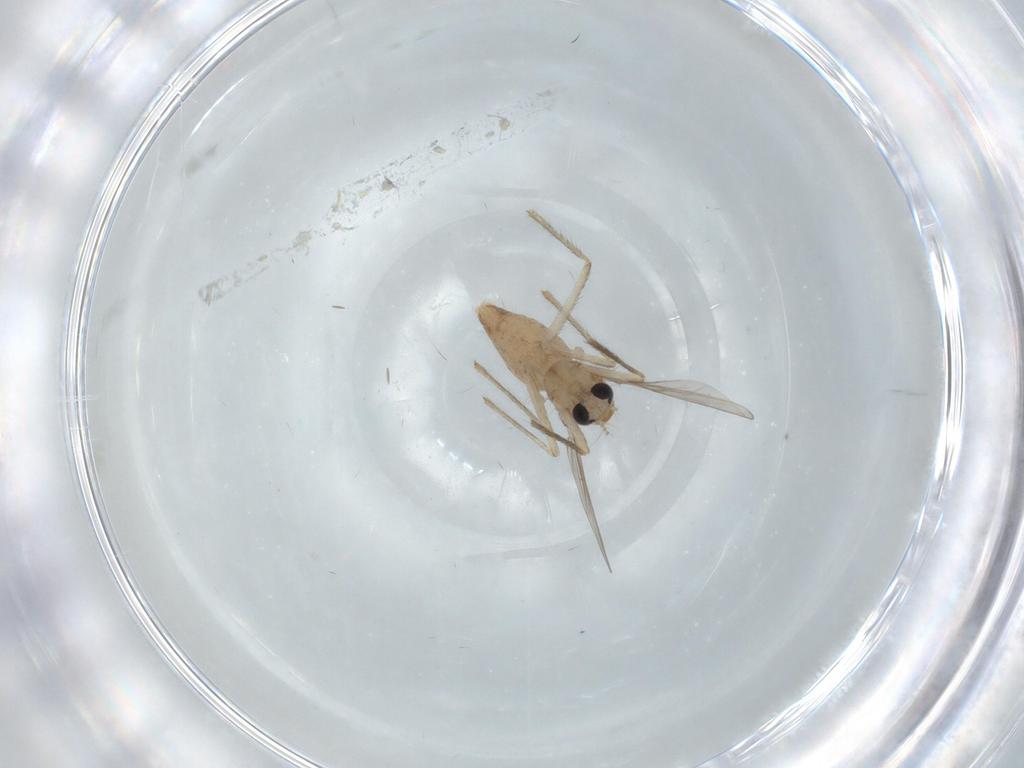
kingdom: Animalia
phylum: Arthropoda
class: Insecta
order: Diptera
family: Chironomidae
